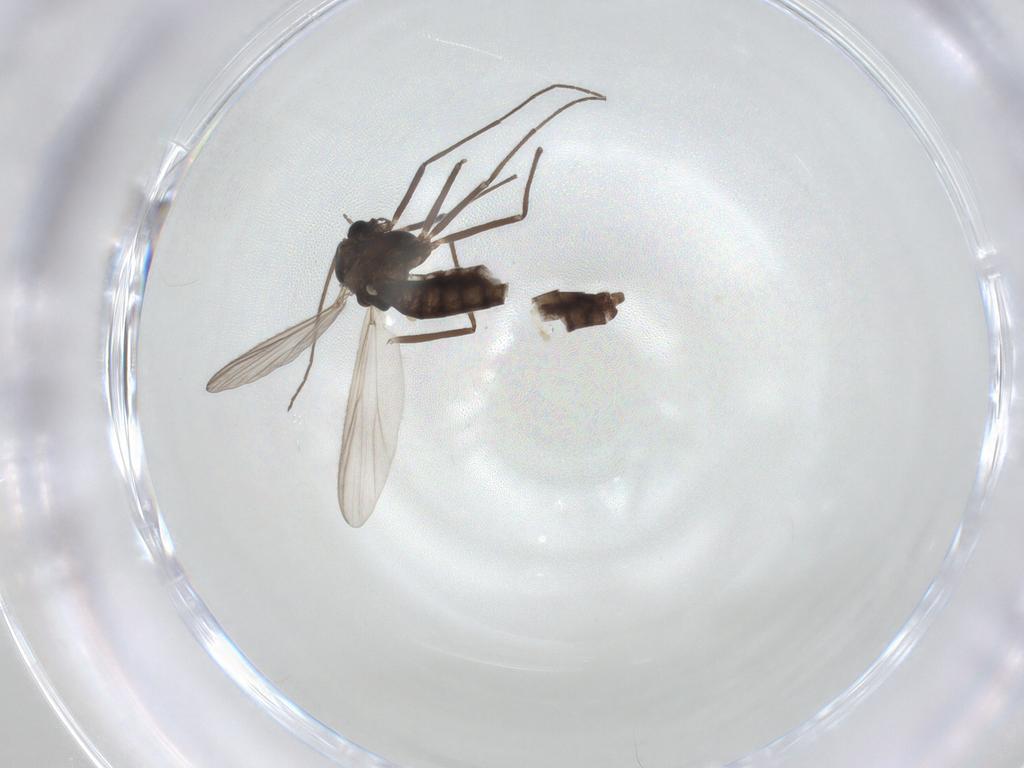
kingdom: Animalia
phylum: Arthropoda
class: Insecta
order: Diptera
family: Chironomidae
